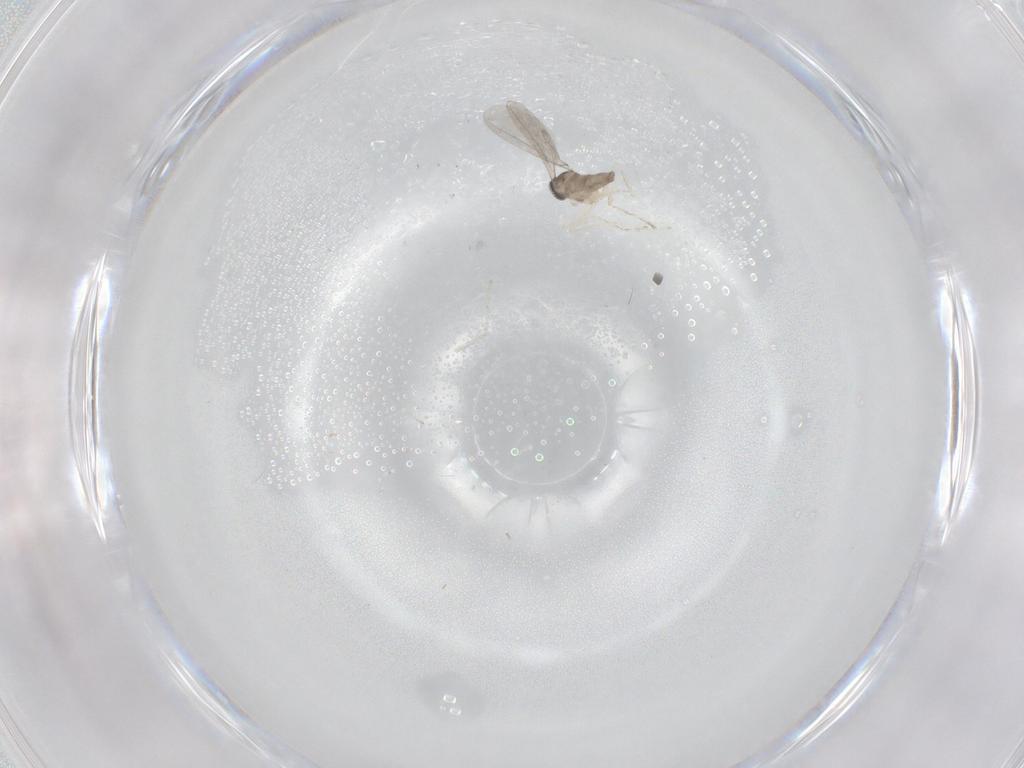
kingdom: Animalia
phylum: Arthropoda
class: Insecta
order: Diptera
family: Cecidomyiidae
